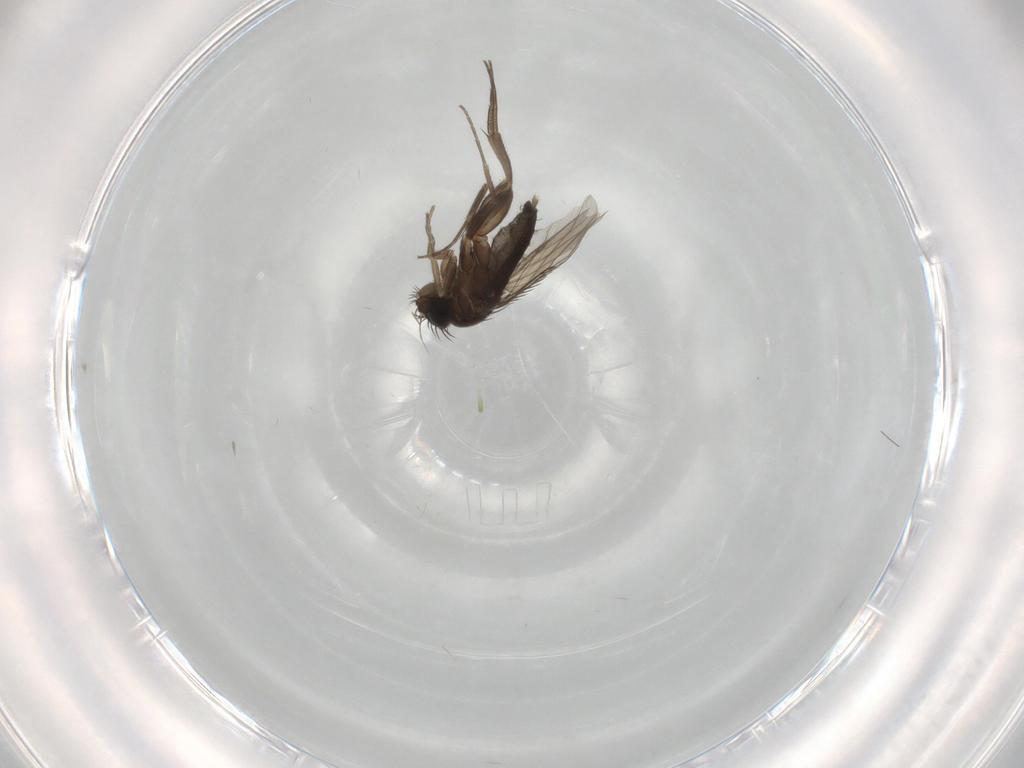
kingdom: Animalia
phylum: Arthropoda
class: Insecta
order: Diptera
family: Phoridae
